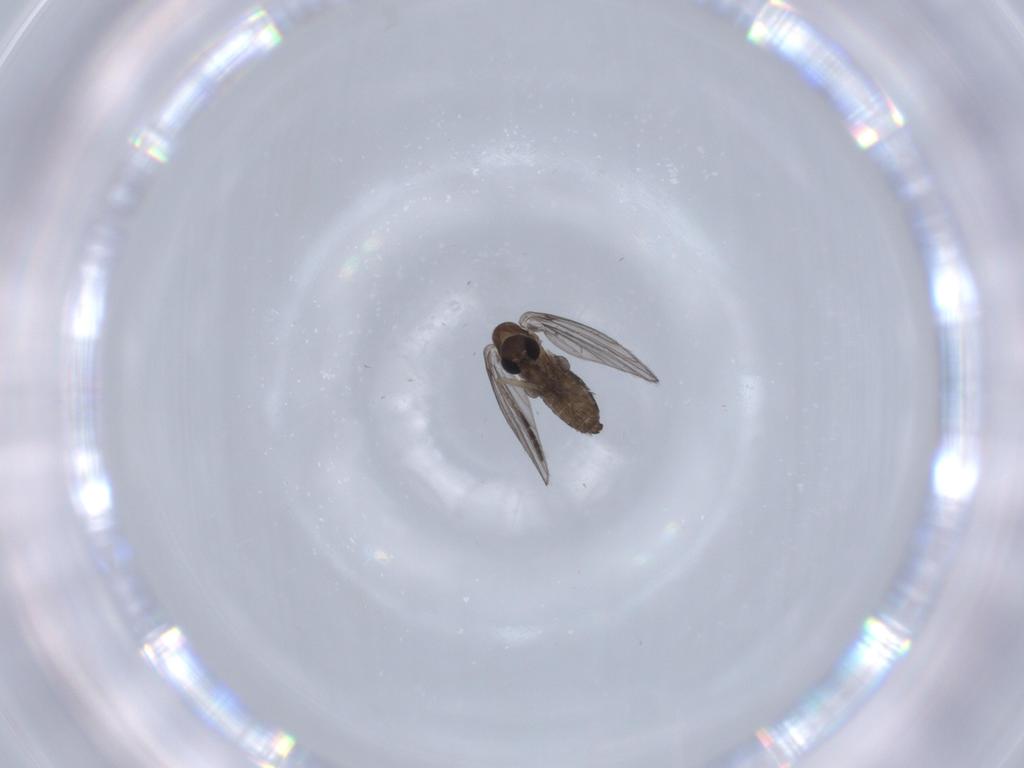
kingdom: Animalia
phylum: Arthropoda
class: Insecta
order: Diptera
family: Psychodidae
